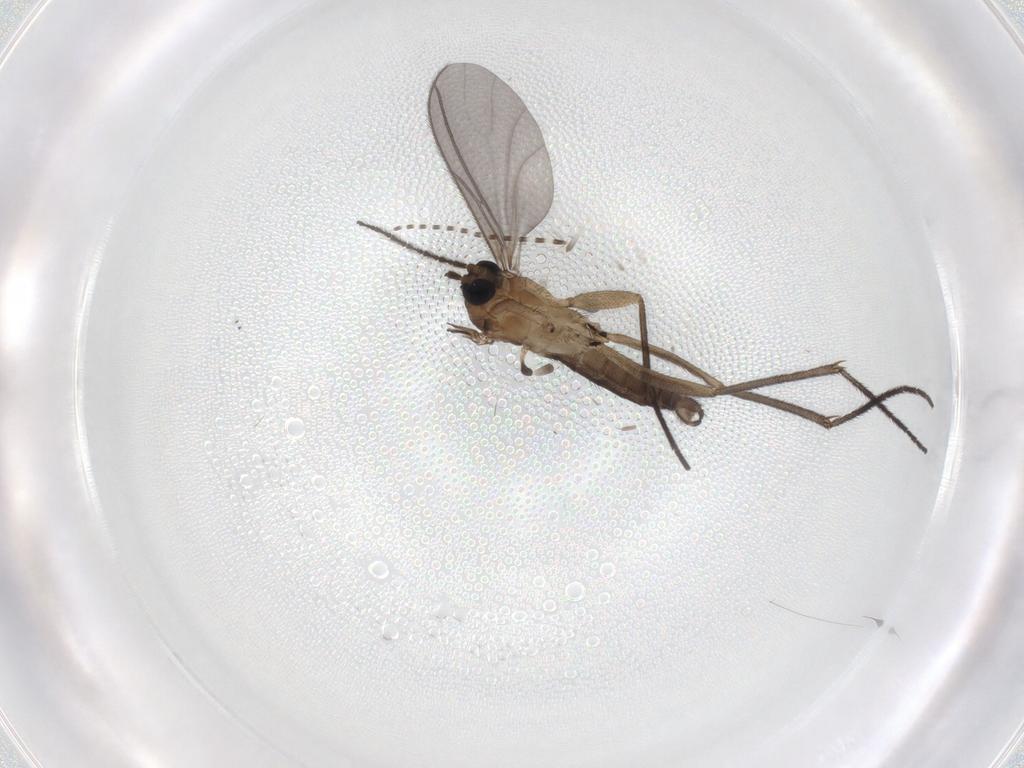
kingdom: Animalia
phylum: Arthropoda
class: Insecta
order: Diptera
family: Sciaridae
